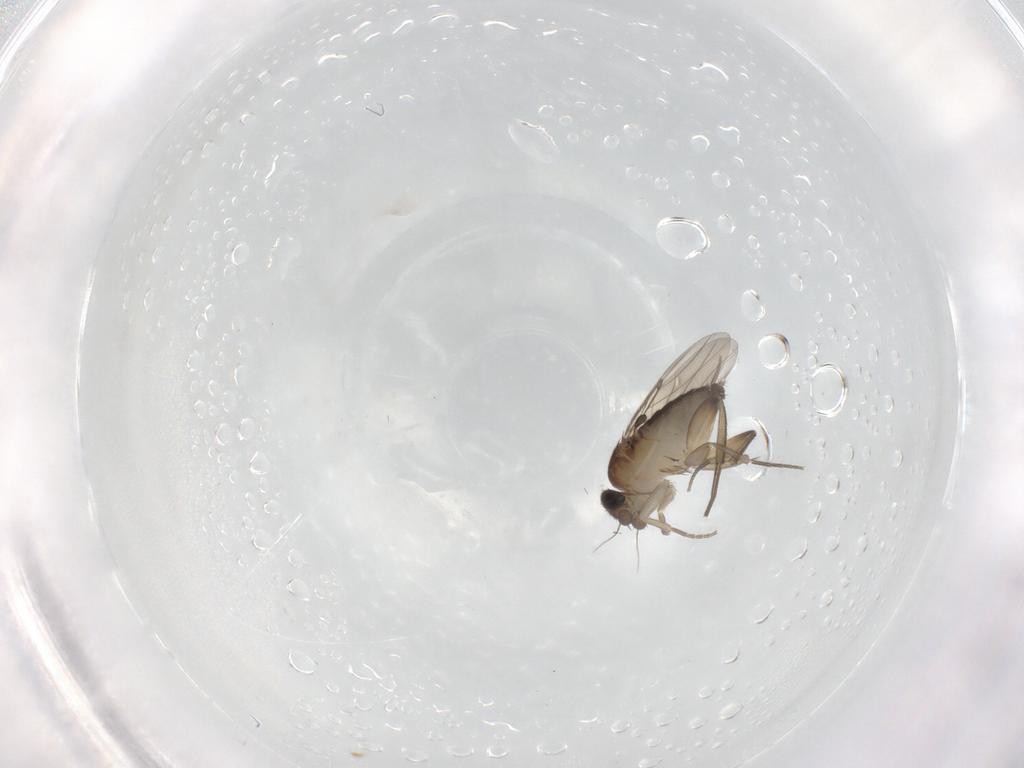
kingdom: Animalia
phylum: Arthropoda
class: Insecta
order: Diptera
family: Phoridae
